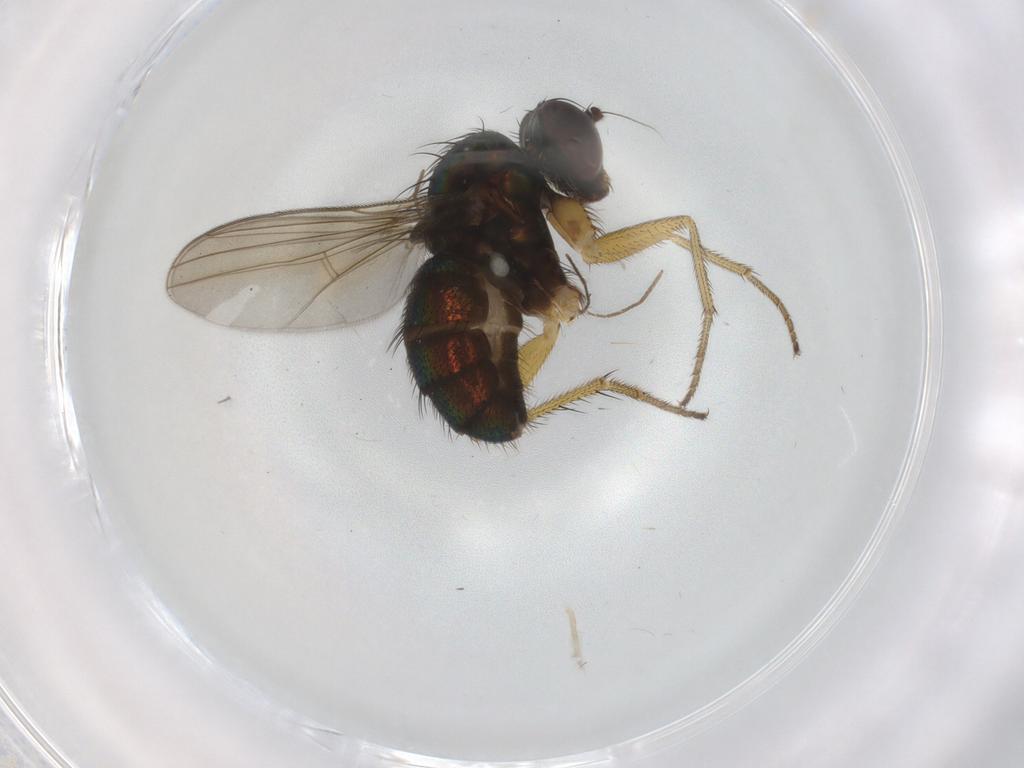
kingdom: Animalia
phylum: Arthropoda
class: Insecta
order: Diptera
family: Dolichopodidae
